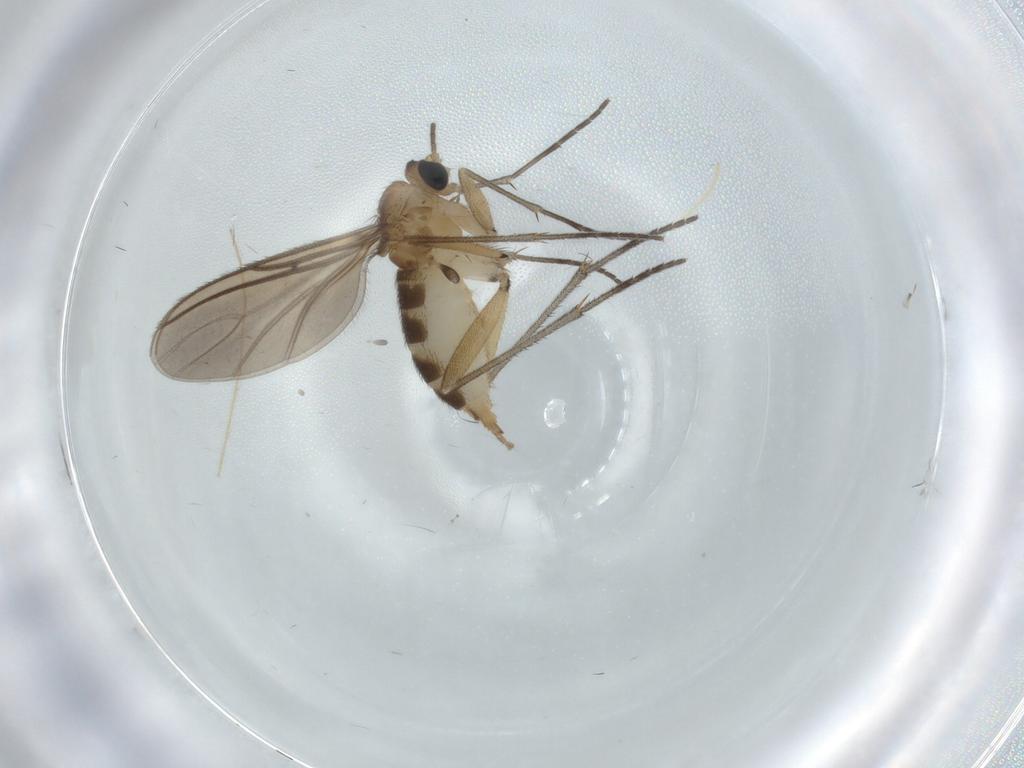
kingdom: Animalia
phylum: Arthropoda
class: Insecta
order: Diptera
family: Sciaridae
